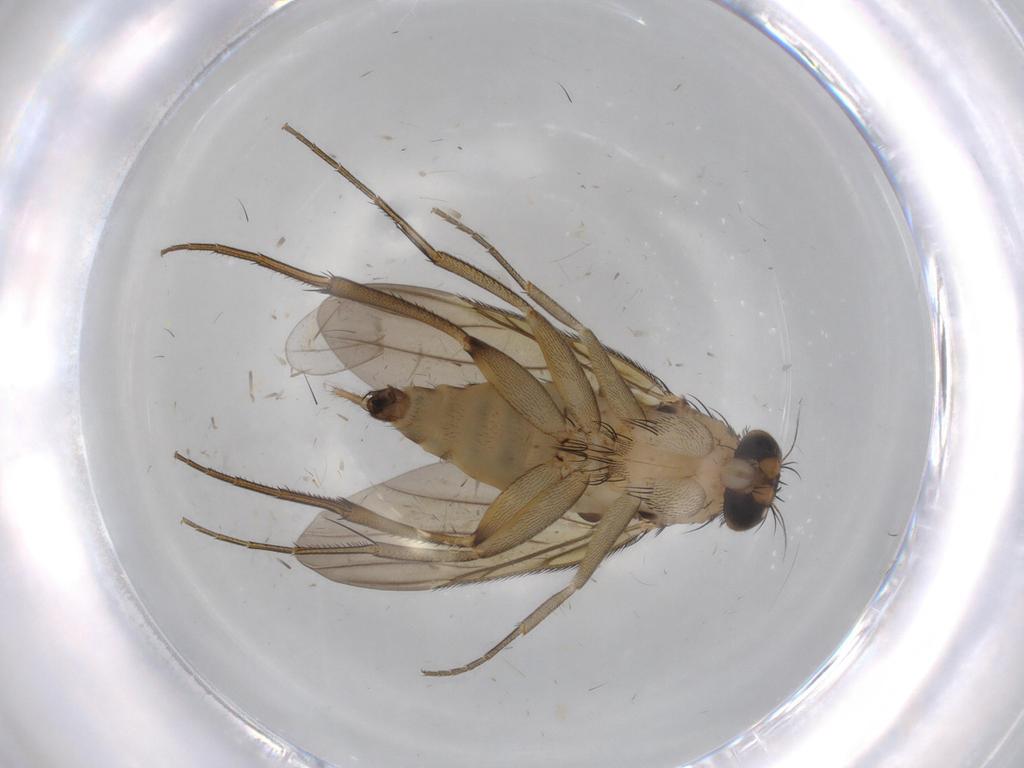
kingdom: Animalia
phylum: Arthropoda
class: Insecta
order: Diptera
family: Phoridae
